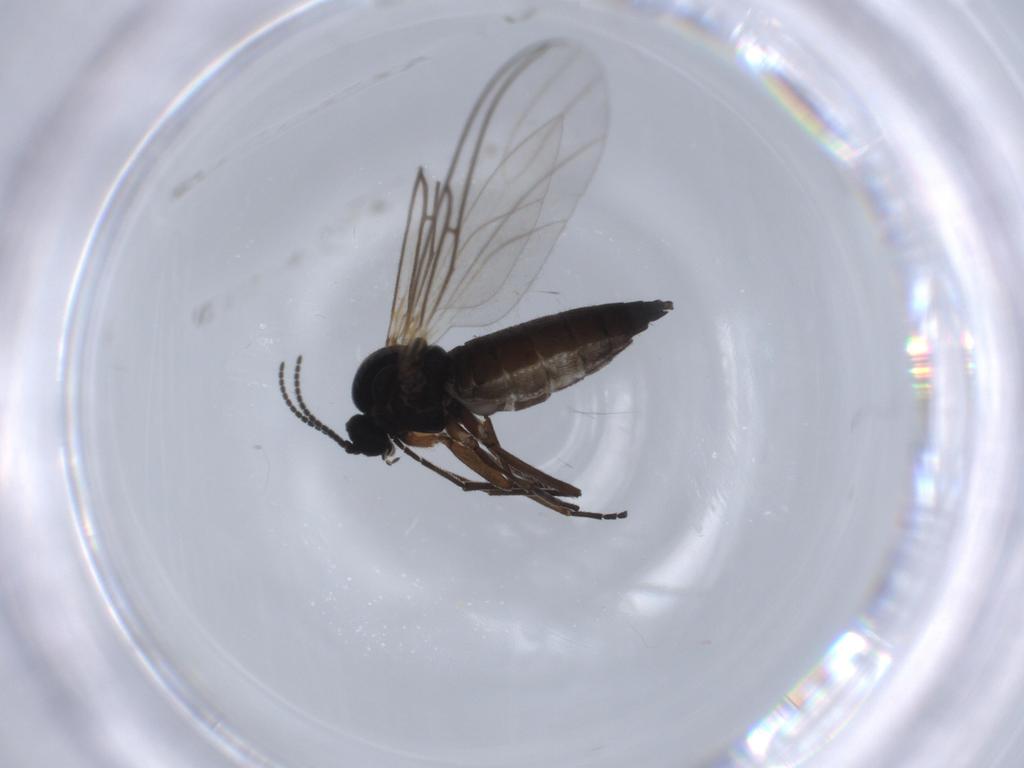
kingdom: Animalia
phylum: Arthropoda
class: Insecta
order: Diptera
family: Sciaridae
